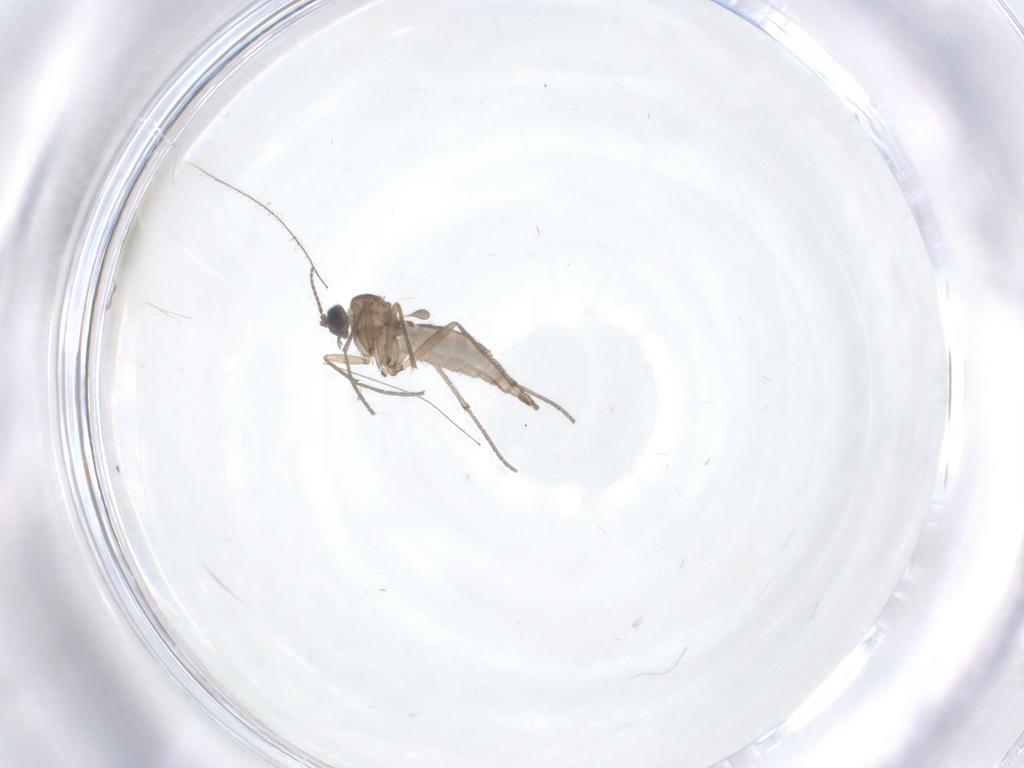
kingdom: Animalia
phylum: Arthropoda
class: Insecta
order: Diptera
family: Sciaridae
